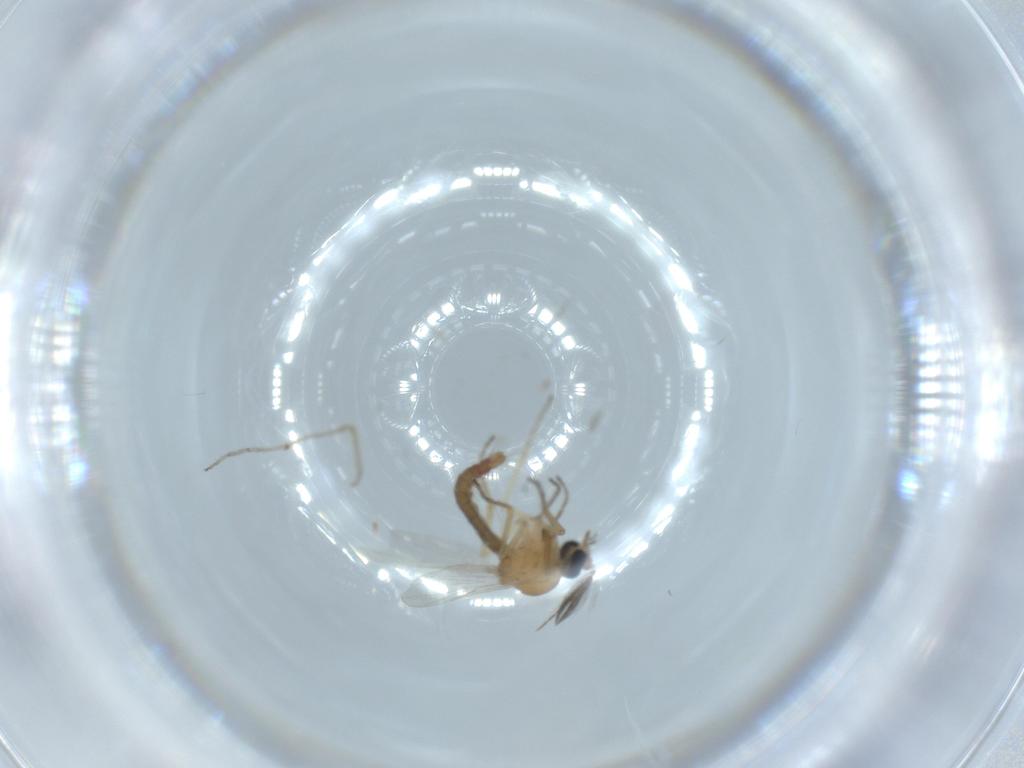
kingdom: Animalia
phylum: Arthropoda
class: Insecta
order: Diptera
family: Ceratopogonidae
